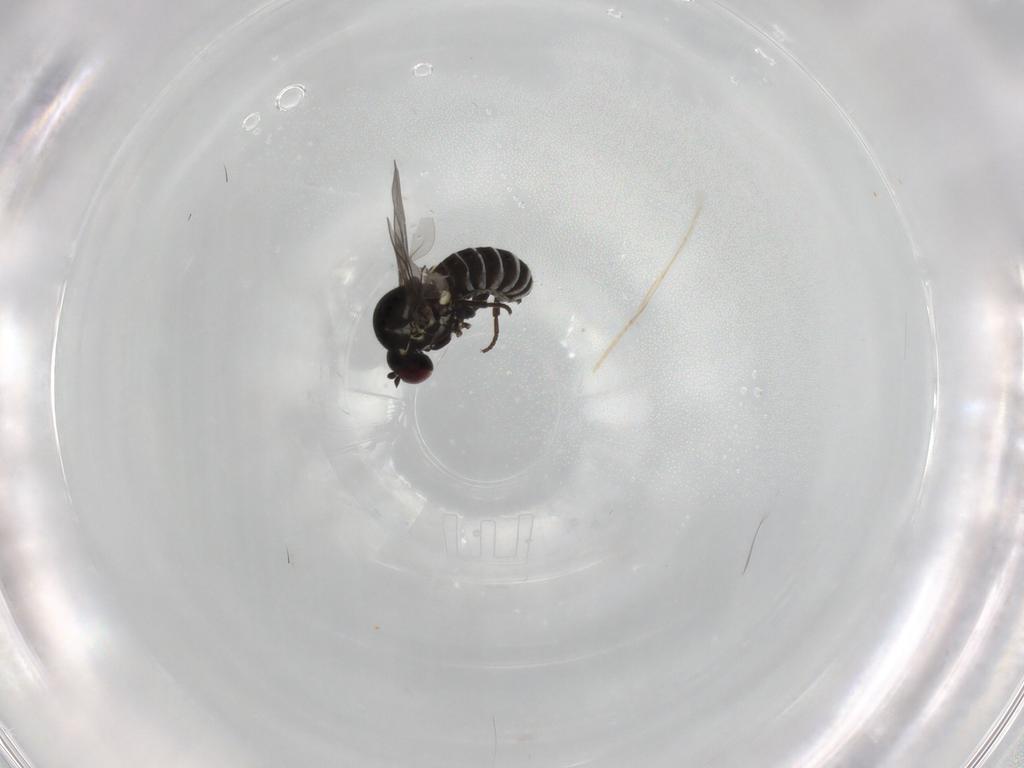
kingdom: Animalia
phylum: Arthropoda
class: Insecta
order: Diptera
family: Mythicomyiidae
